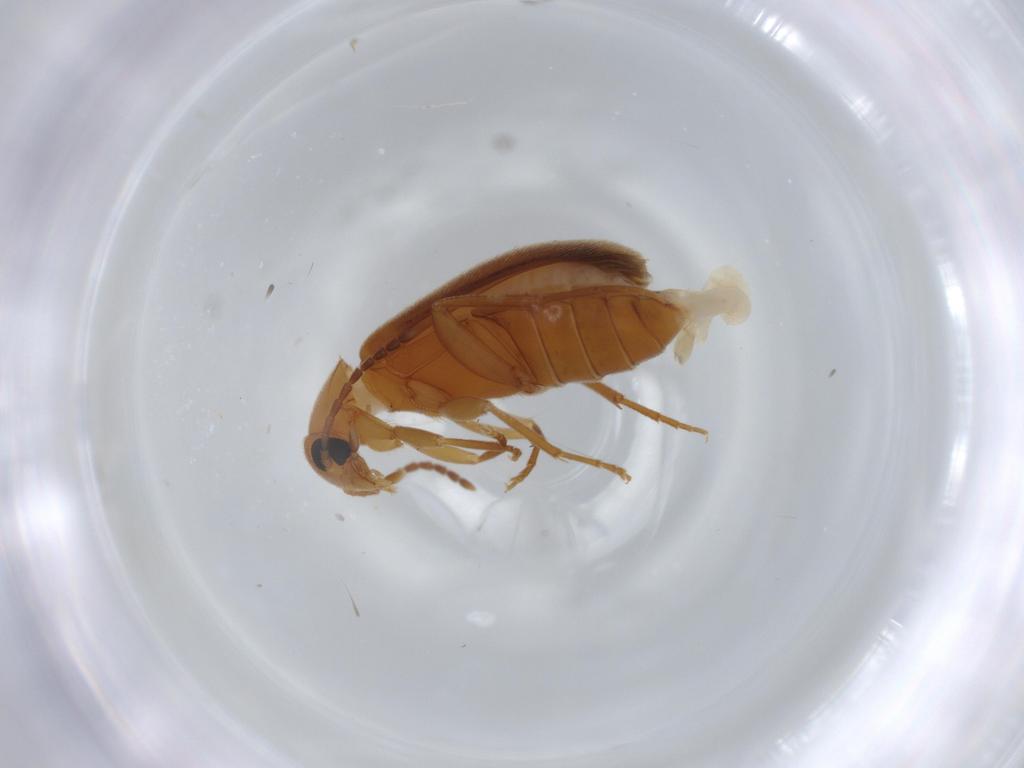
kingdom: Animalia
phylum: Arthropoda
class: Insecta
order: Coleoptera
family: Scraptiidae
